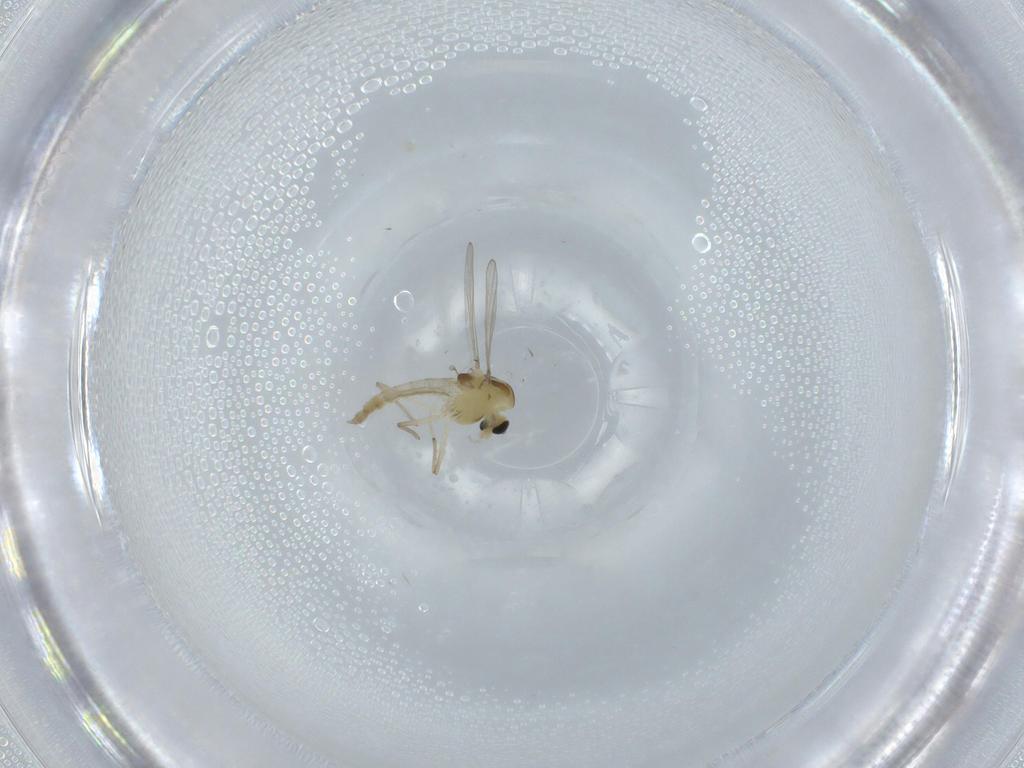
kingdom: Animalia
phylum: Arthropoda
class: Insecta
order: Diptera
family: Chironomidae
